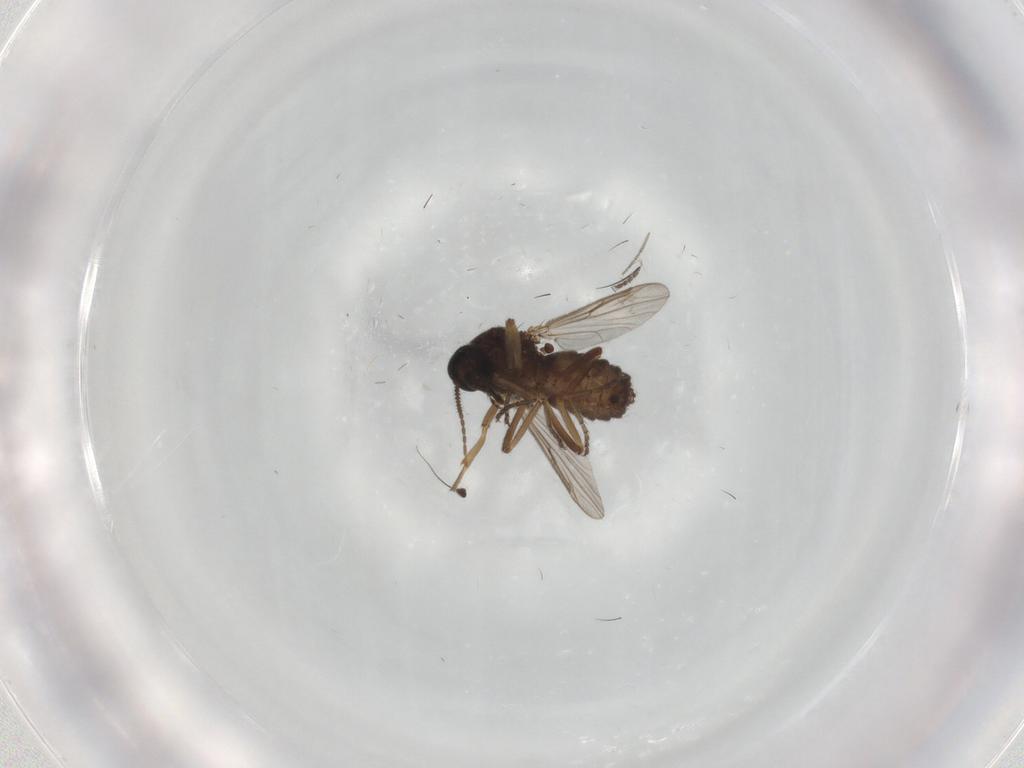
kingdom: Animalia
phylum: Arthropoda
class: Insecta
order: Diptera
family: Ceratopogonidae
